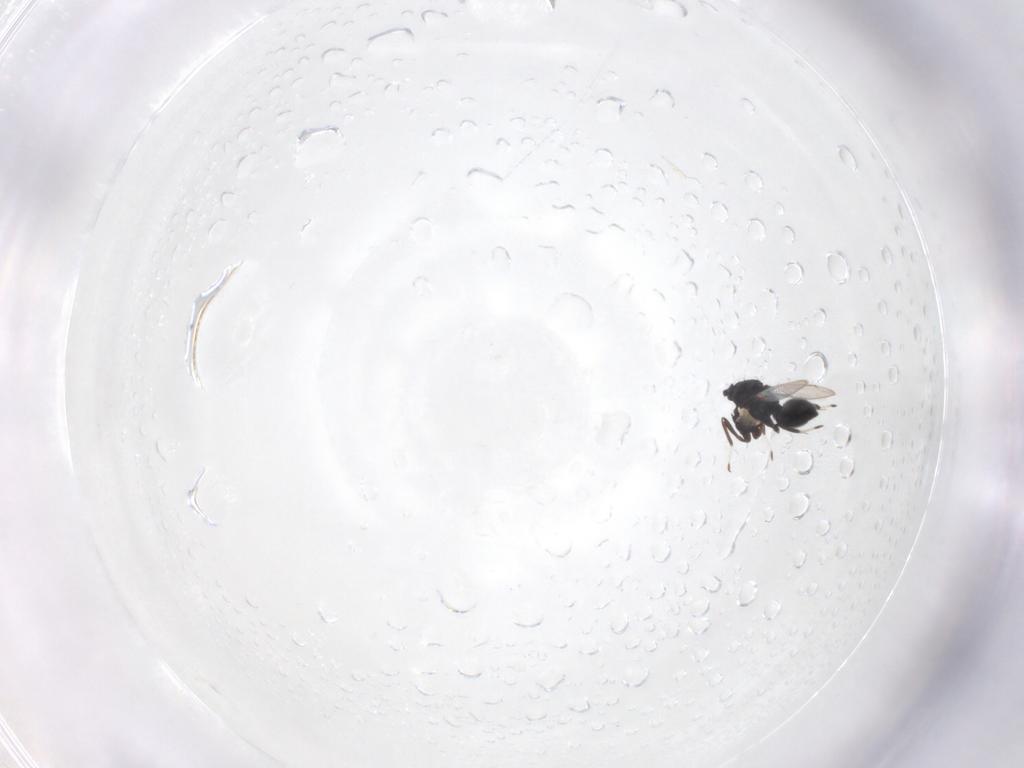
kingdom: Animalia
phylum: Arthropoda
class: Insecta
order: Hymenoptera
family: Eulophidae
